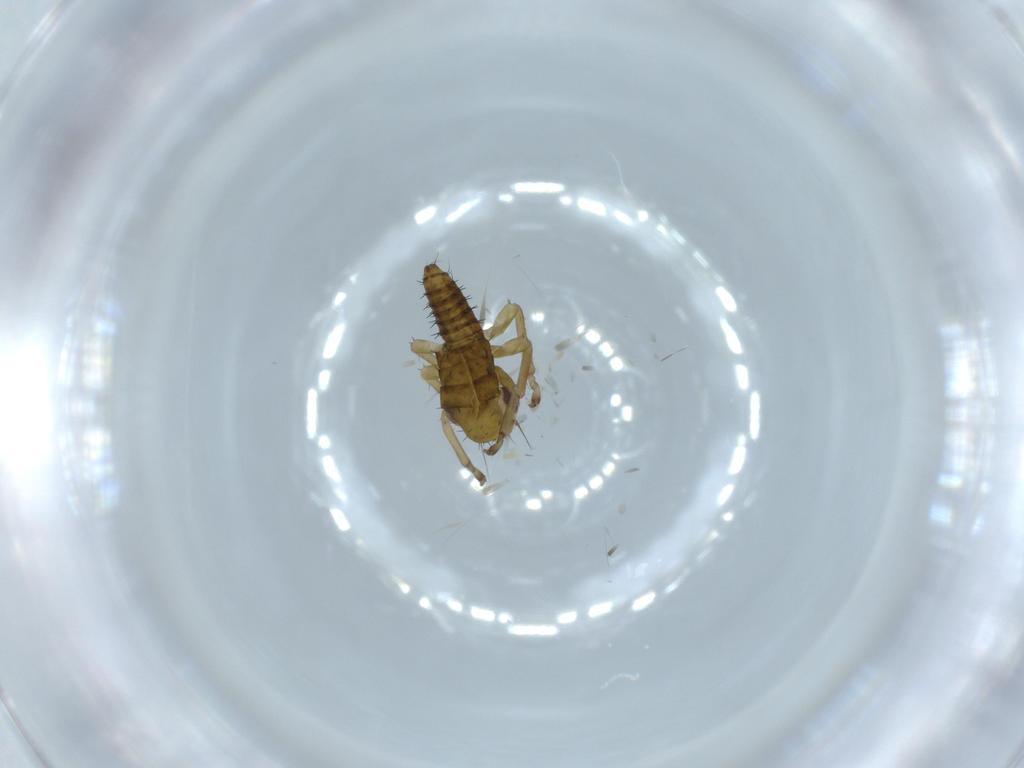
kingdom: Animalia
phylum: Arthropoda
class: Insecta
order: Hemiptera
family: Cicadellidae
